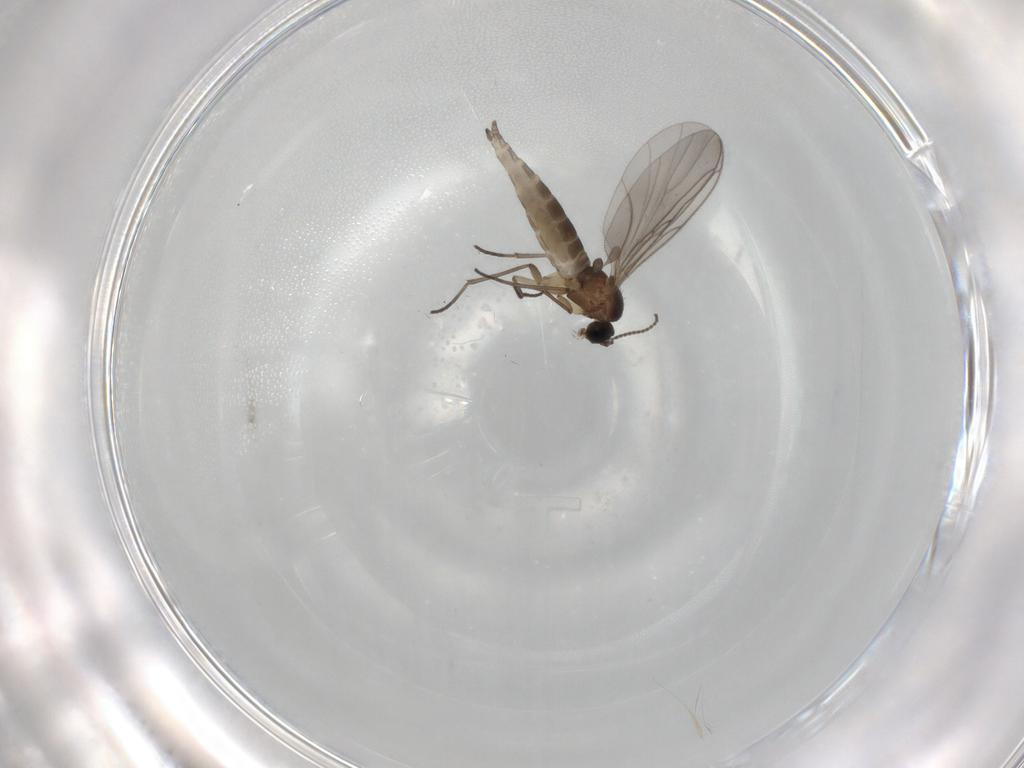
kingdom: Animalia
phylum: Arthropoda
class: Insecta
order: Diptera
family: Sciaridae
